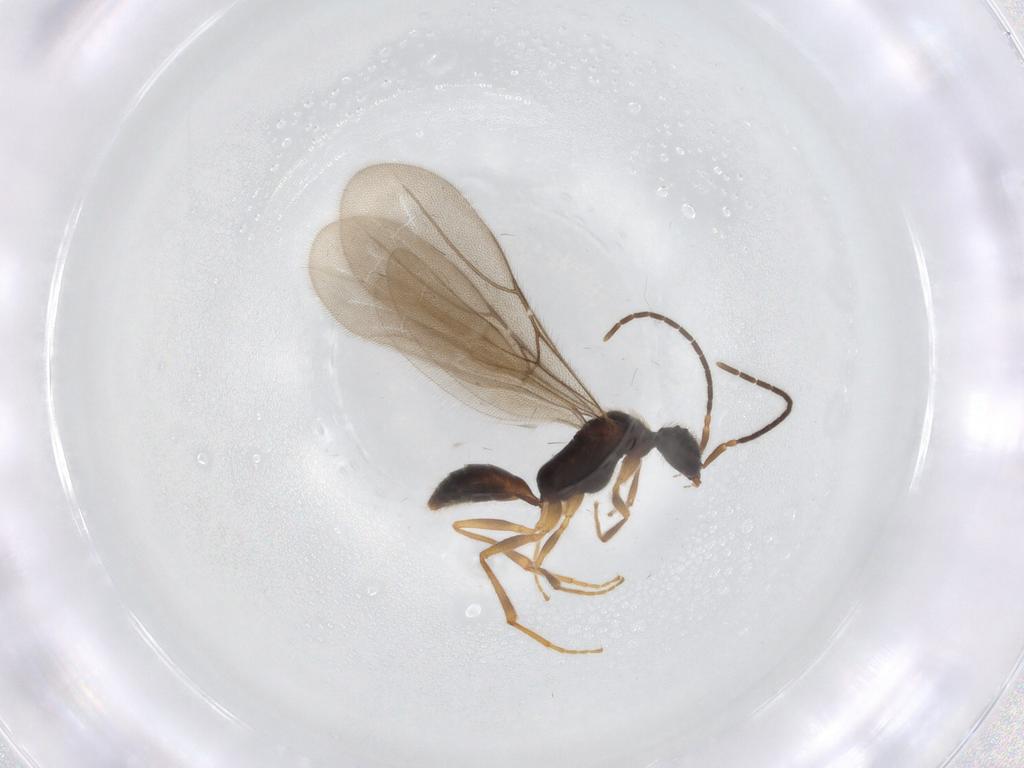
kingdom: Animalia
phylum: Arthropoda
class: Insecta
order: Hymenoptera
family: Bethylidae
